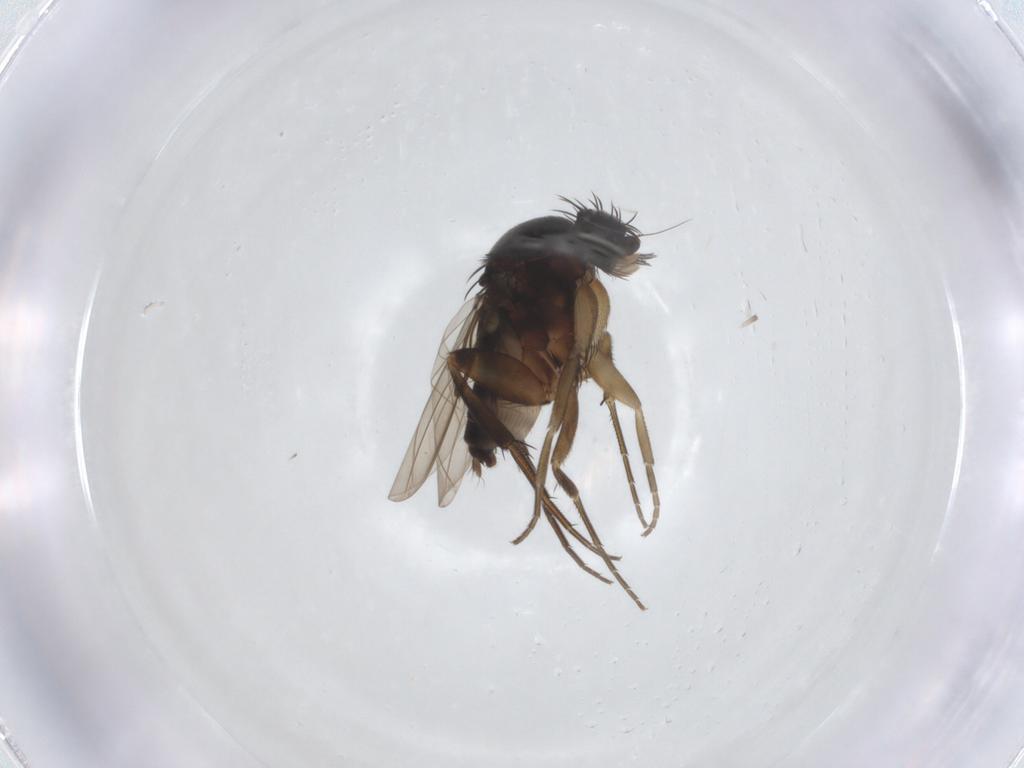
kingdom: Animalia
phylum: Arthropoda
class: Insecta
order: Diptera
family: Phoridae
